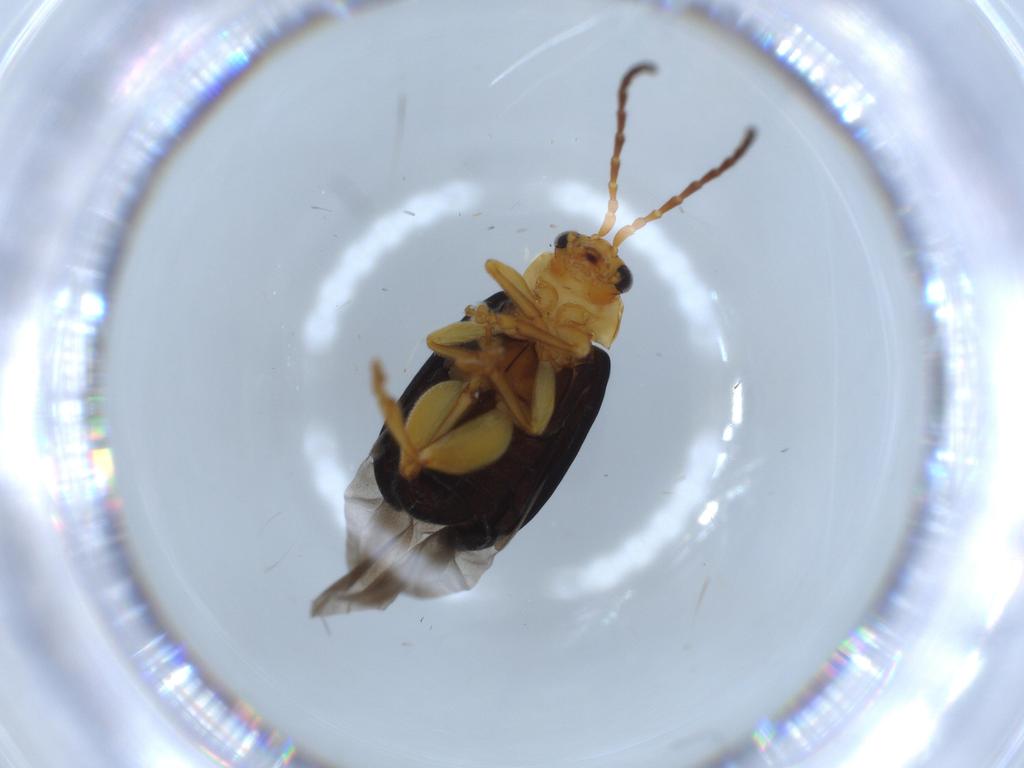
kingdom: Animalia
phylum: Arthropoda
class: Insecta
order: Coleoptera
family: Chrysomelidae
